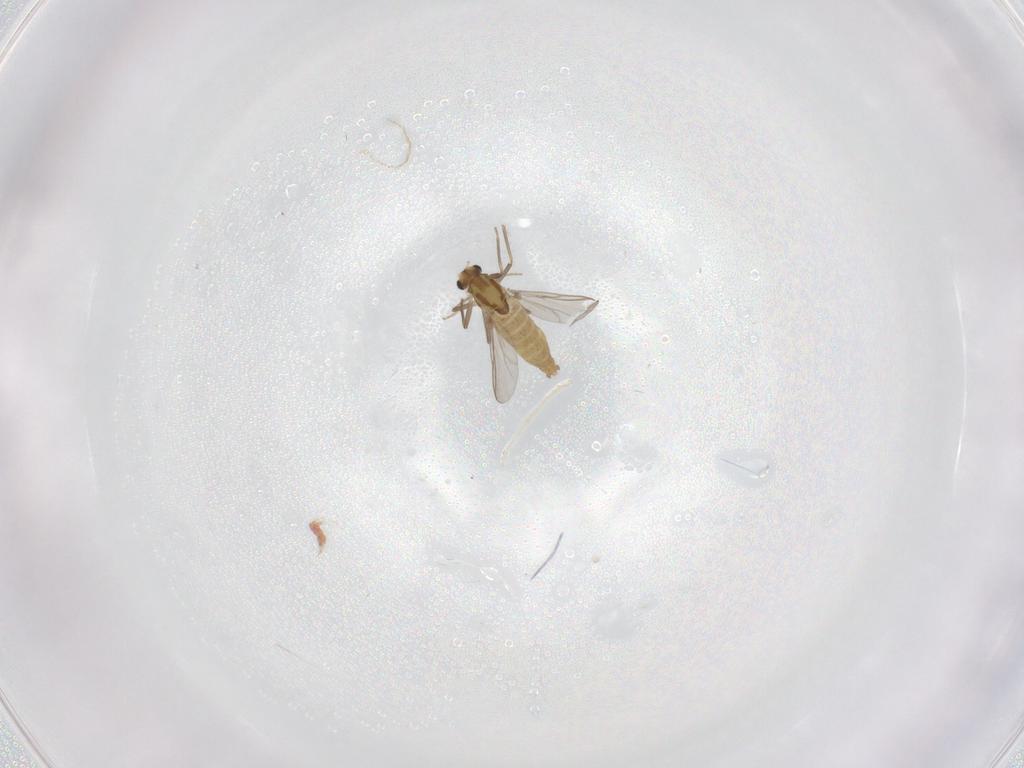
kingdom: Animalia
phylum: Arthropoda
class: Insecta
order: Diptera
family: Chironomidae
